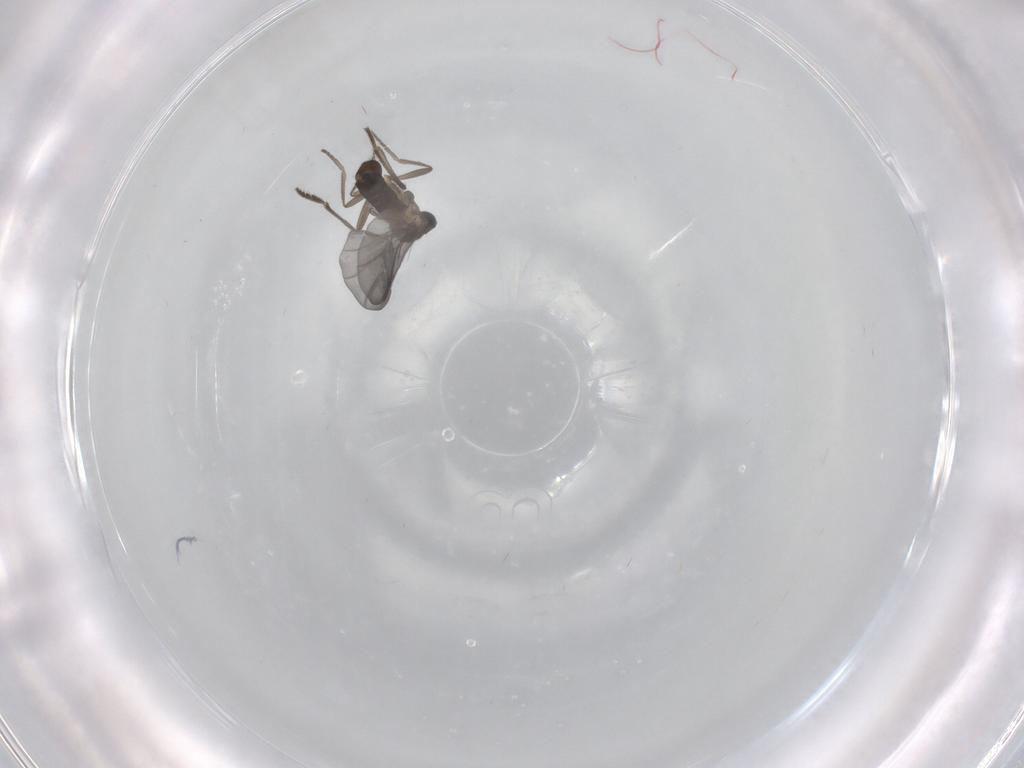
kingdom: Animalia
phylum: Arthropoda
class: Insecta
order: Diptera
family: Phoridae
